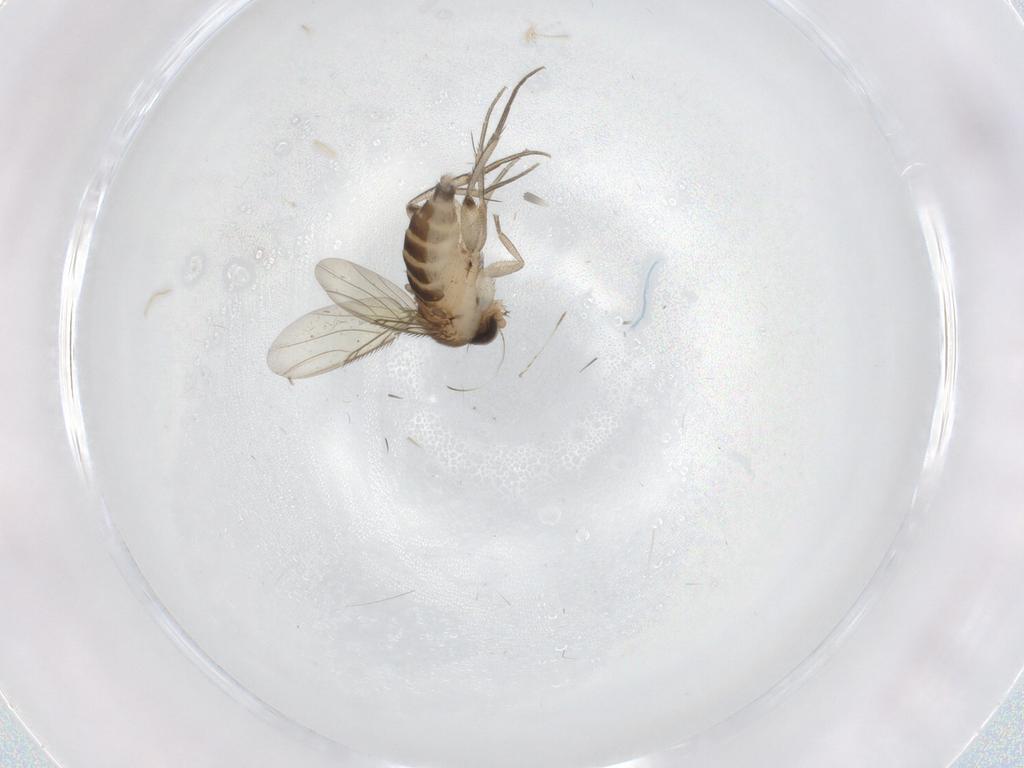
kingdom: Animalia
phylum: Arthropoda
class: Insecta
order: Diptera
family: Phoridae
